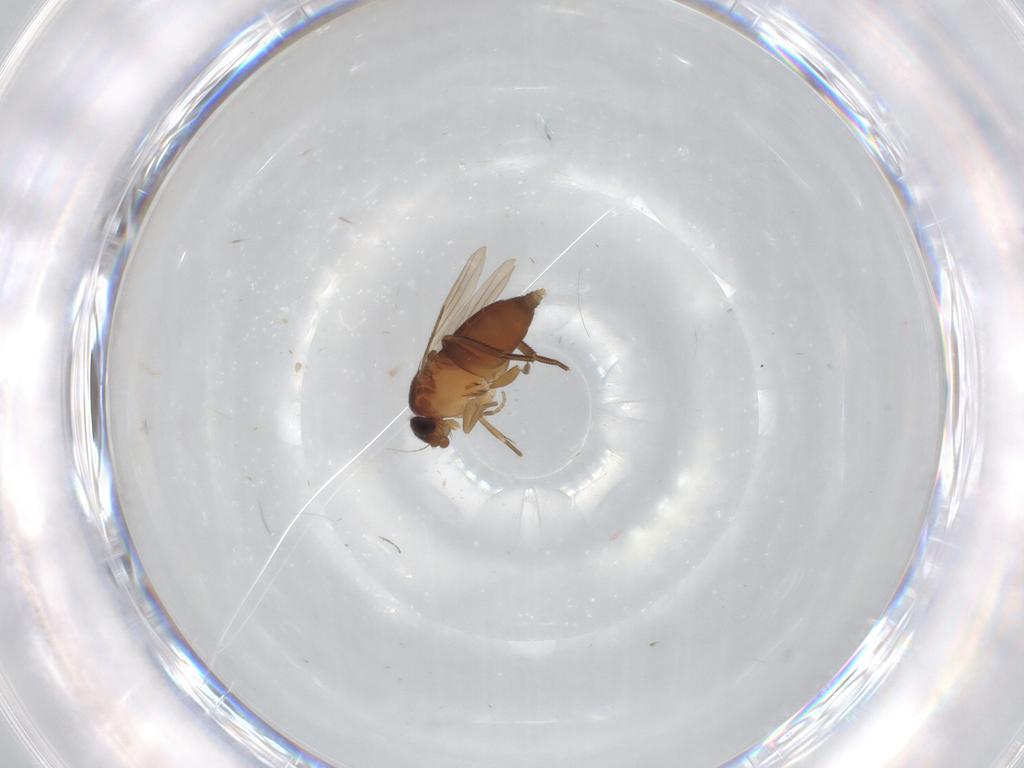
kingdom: Animalia
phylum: Arthropoda
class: Insecta
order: Diptera
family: Chironomidae
